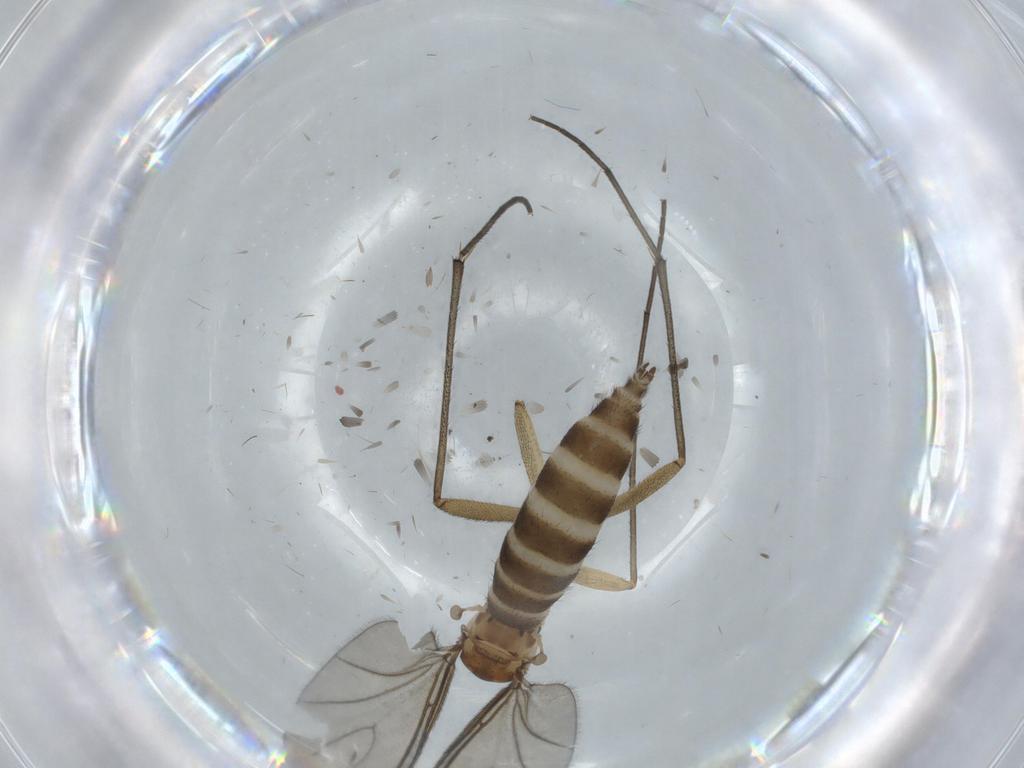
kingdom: Animalia
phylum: Arthropoda
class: Insecta
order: Diptera
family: Sciaridae
